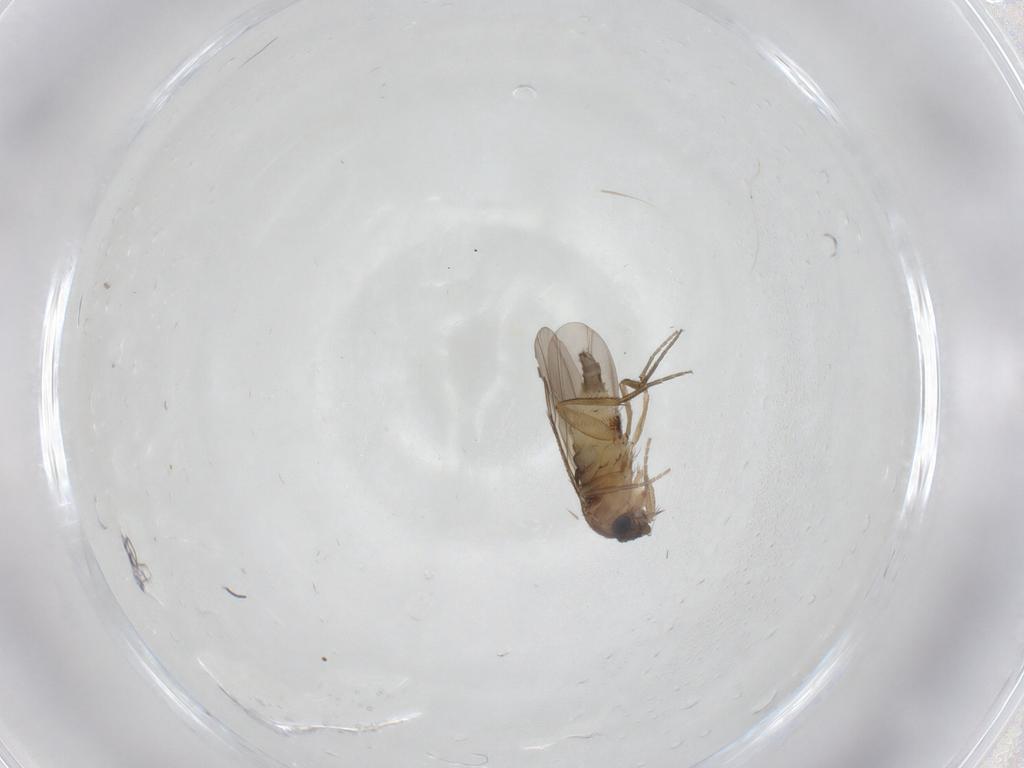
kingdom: Animalia
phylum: Arthropoda
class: Insecta
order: Diptera
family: Phoridae
